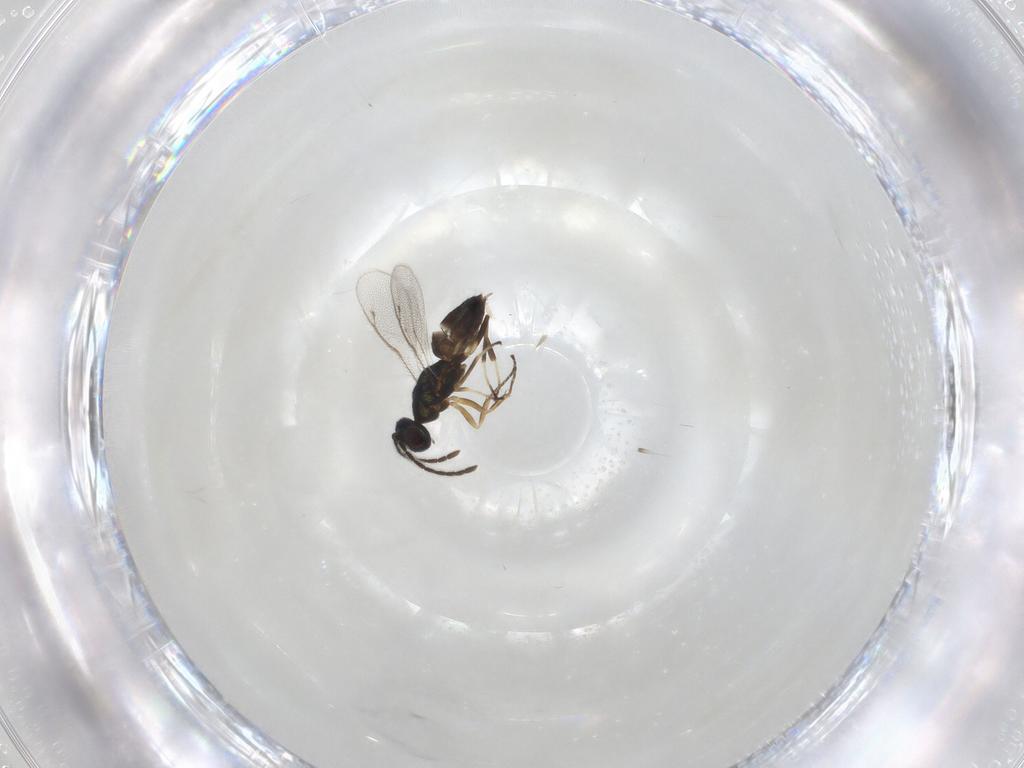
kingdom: Animalia
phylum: Arthropoda
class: Insecta
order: Hymenoptera
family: Eupelmidae
